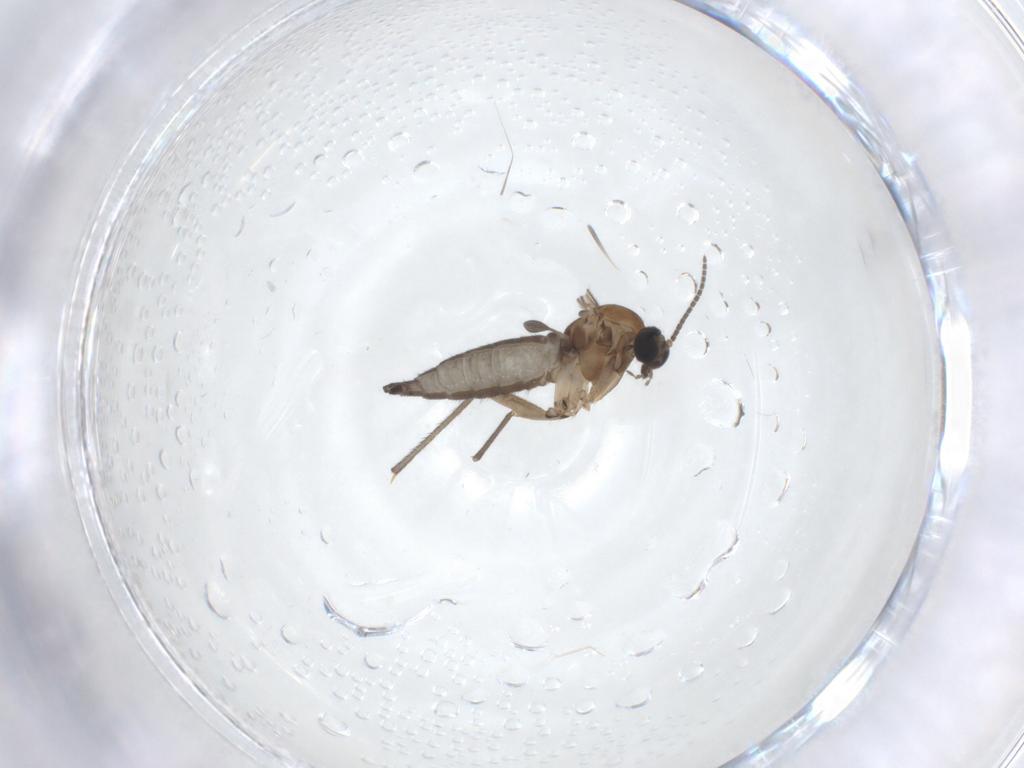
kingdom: Animalia
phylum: Arthropoda
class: Insecta
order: Diptera
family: Sciaridae
